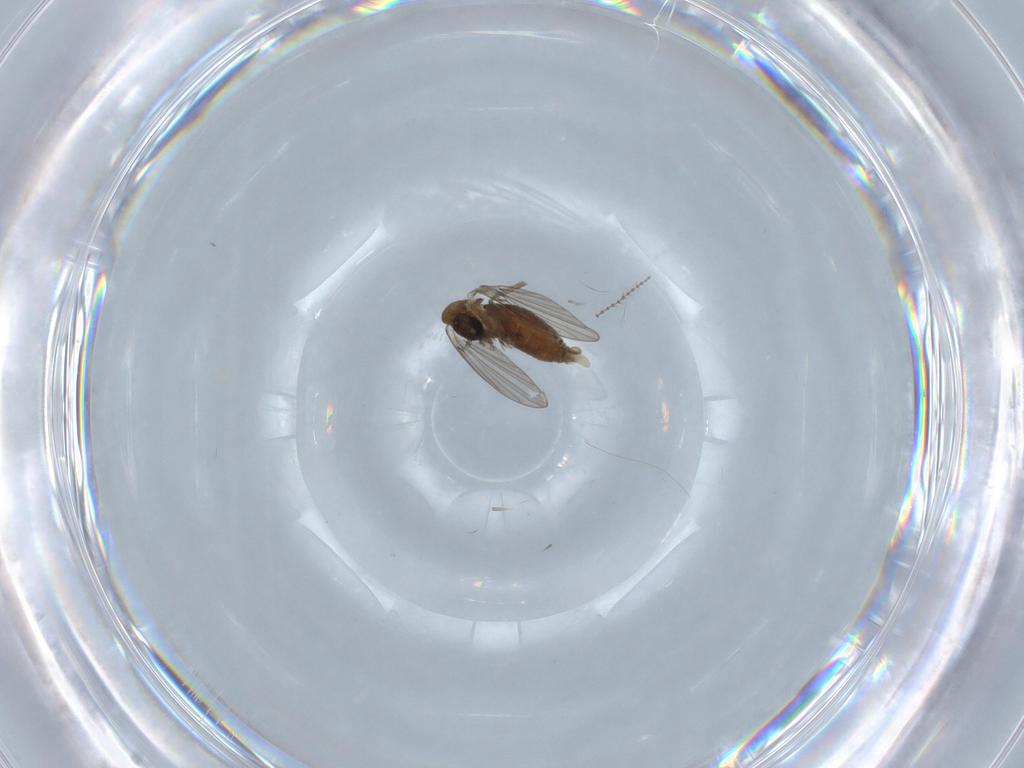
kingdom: Animalia
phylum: Arthropoda
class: Insecta
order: Diptera
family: Psychodidae
